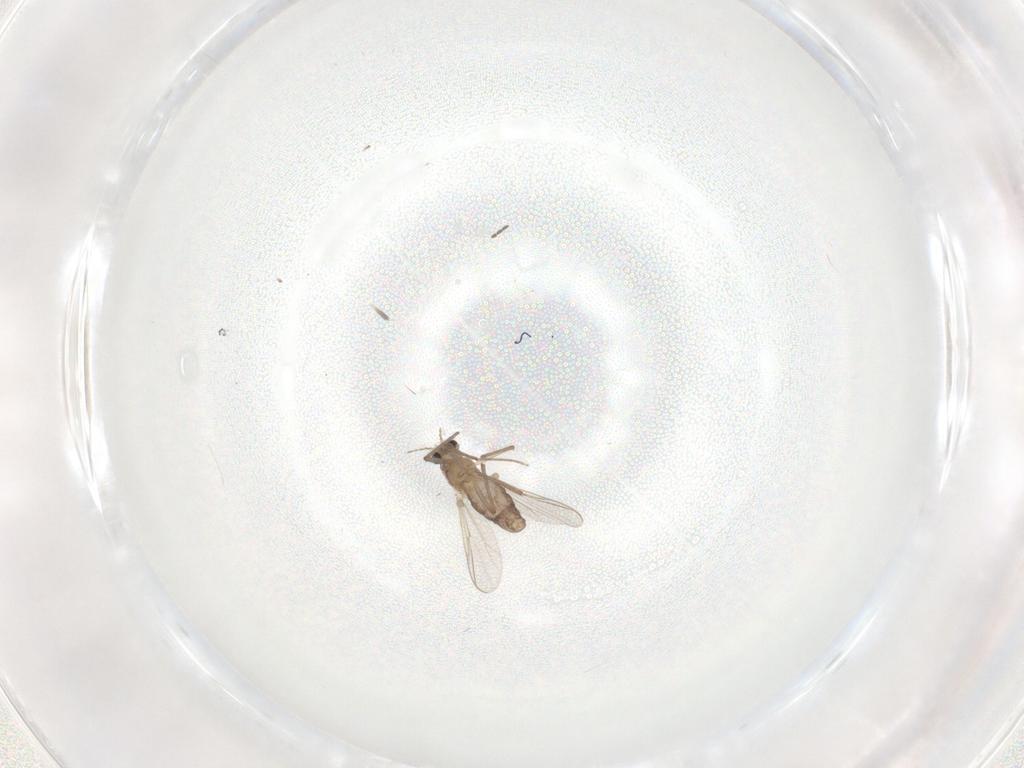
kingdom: Animalia
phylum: Arthropoda
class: Insecta
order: Diptera
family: Chironomidae
